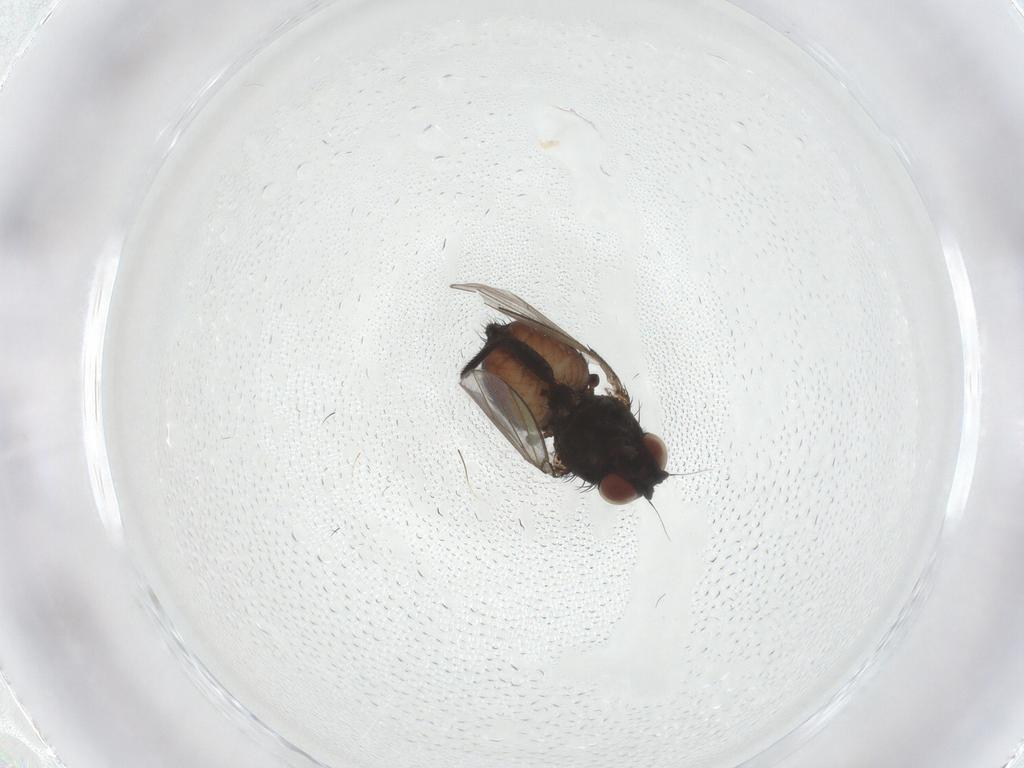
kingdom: Animalia
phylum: Arthropoda
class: Insecta
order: Diptera
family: Milichiidae
